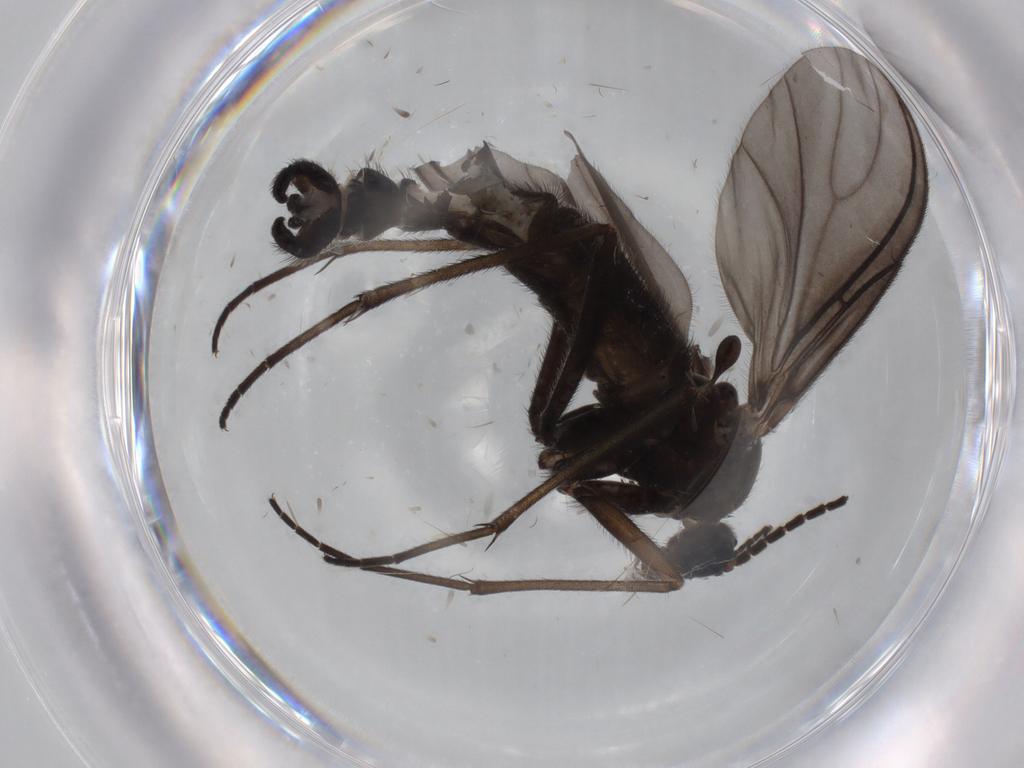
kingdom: Animalia
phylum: Arthropoda
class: Insecta
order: Diptera
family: Sciaridae
